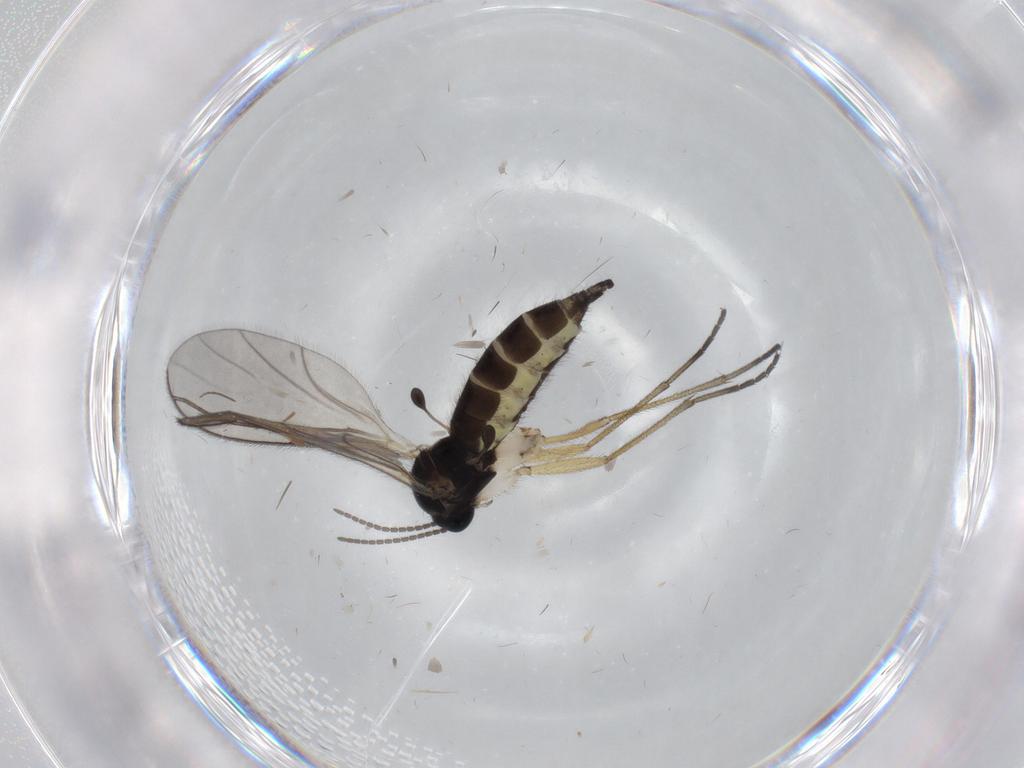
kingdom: Animalia
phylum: Arthropoda
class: Insecta
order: Diptera
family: Sciaridae
